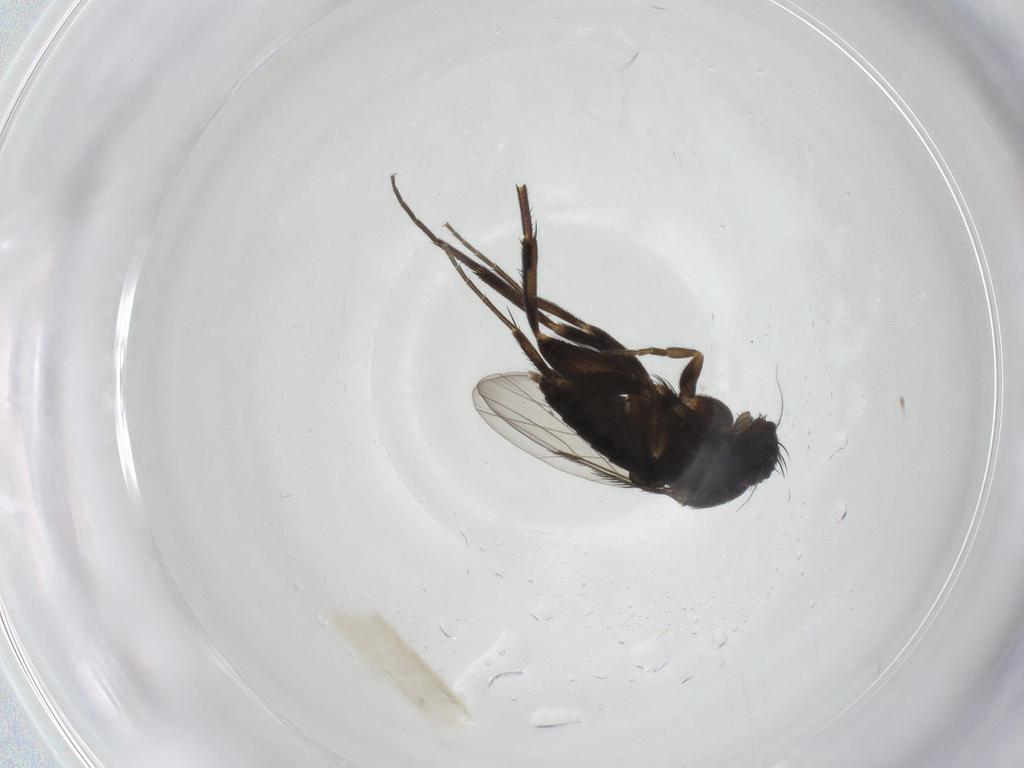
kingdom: Animalia
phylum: Arthropoda
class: Insecta
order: Diptera
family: Phoridae
